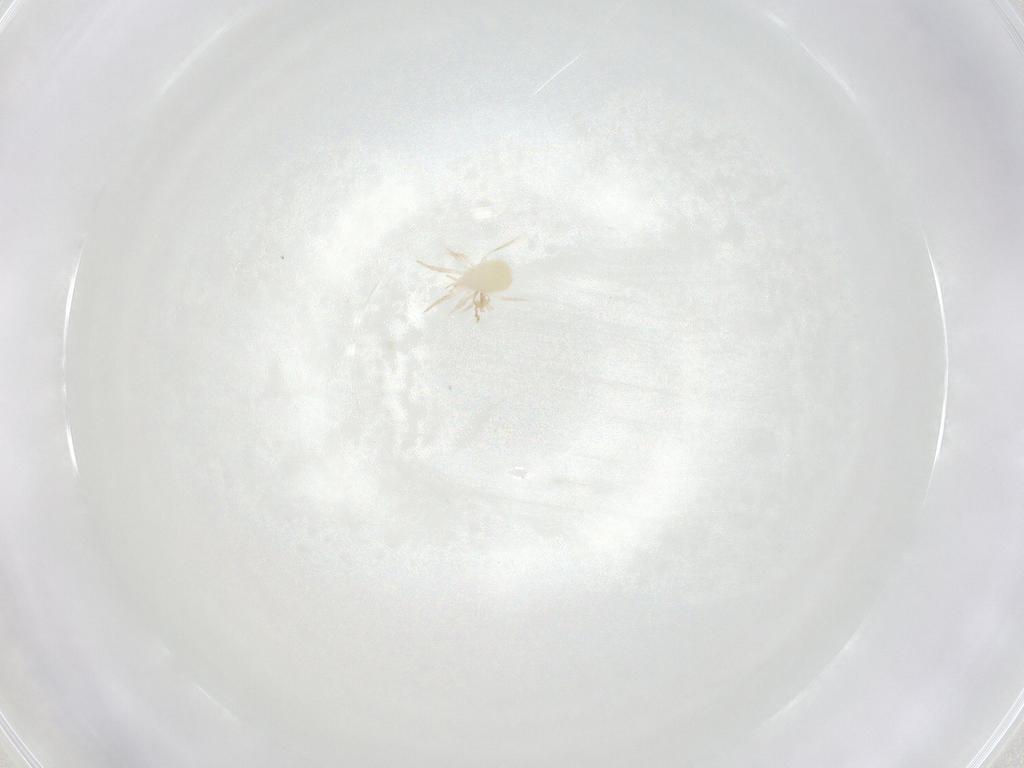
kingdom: Animalia
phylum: Arthropoda
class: Arachnida
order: Mesostigmata
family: Phytoseiidae
